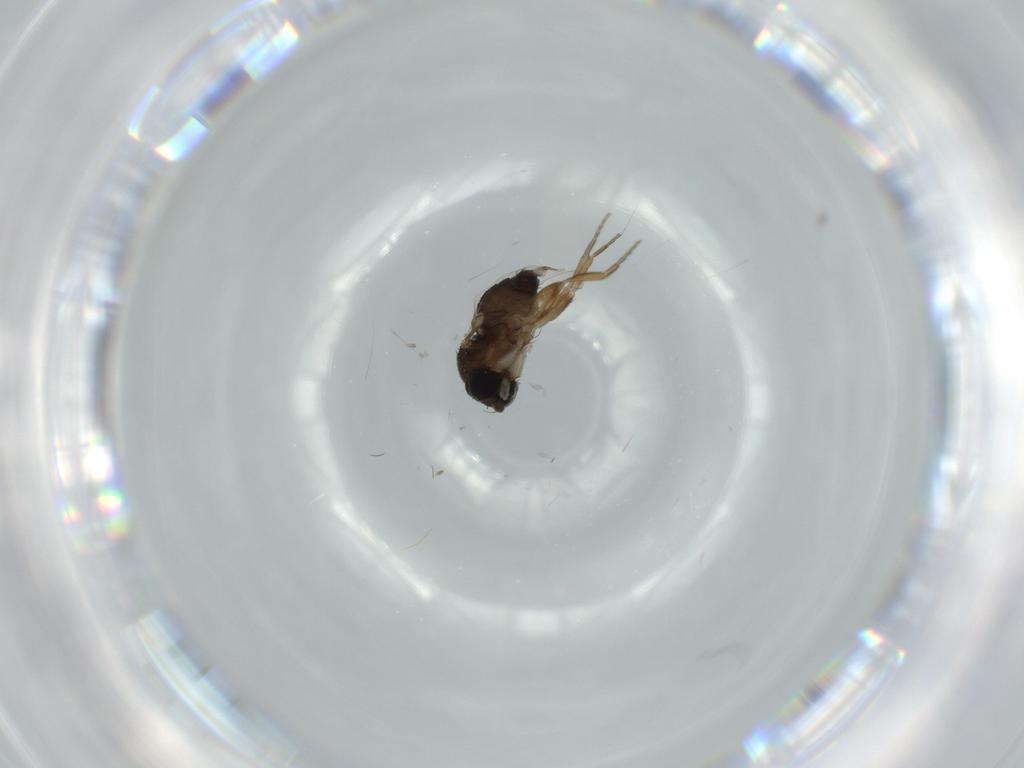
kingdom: Animalia
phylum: Arthropoda
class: Insecta
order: Diptera
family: Phoridae
